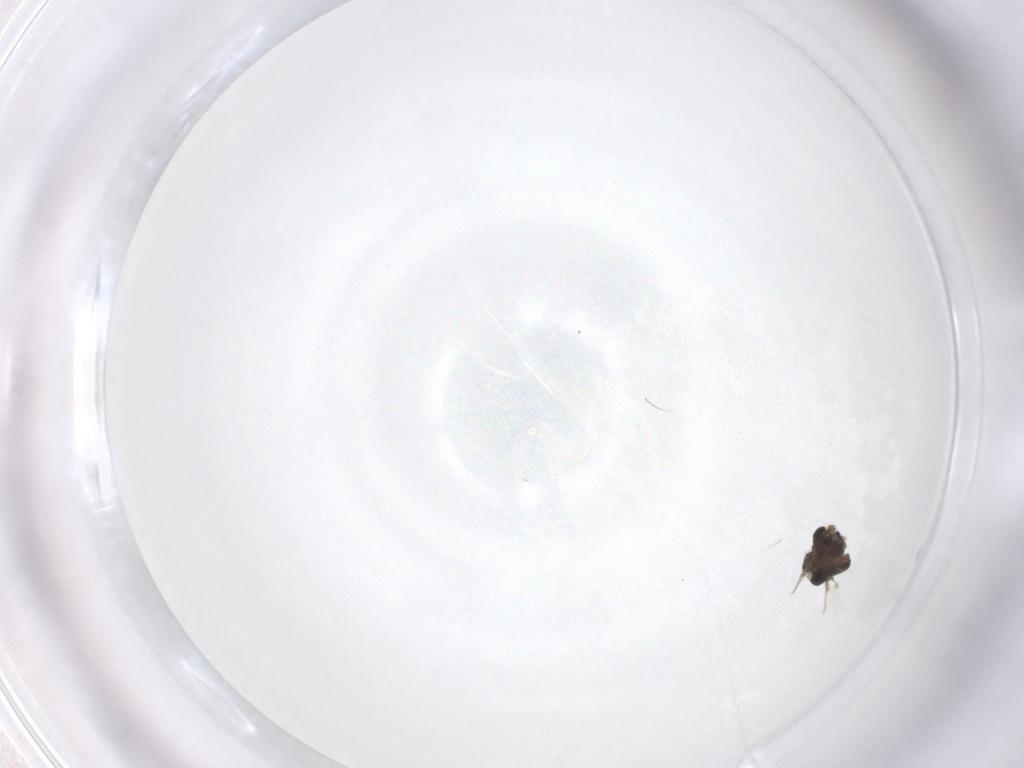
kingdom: Animalia
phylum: Arthropoda
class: Insecta
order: Diptera
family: Chironomidae
